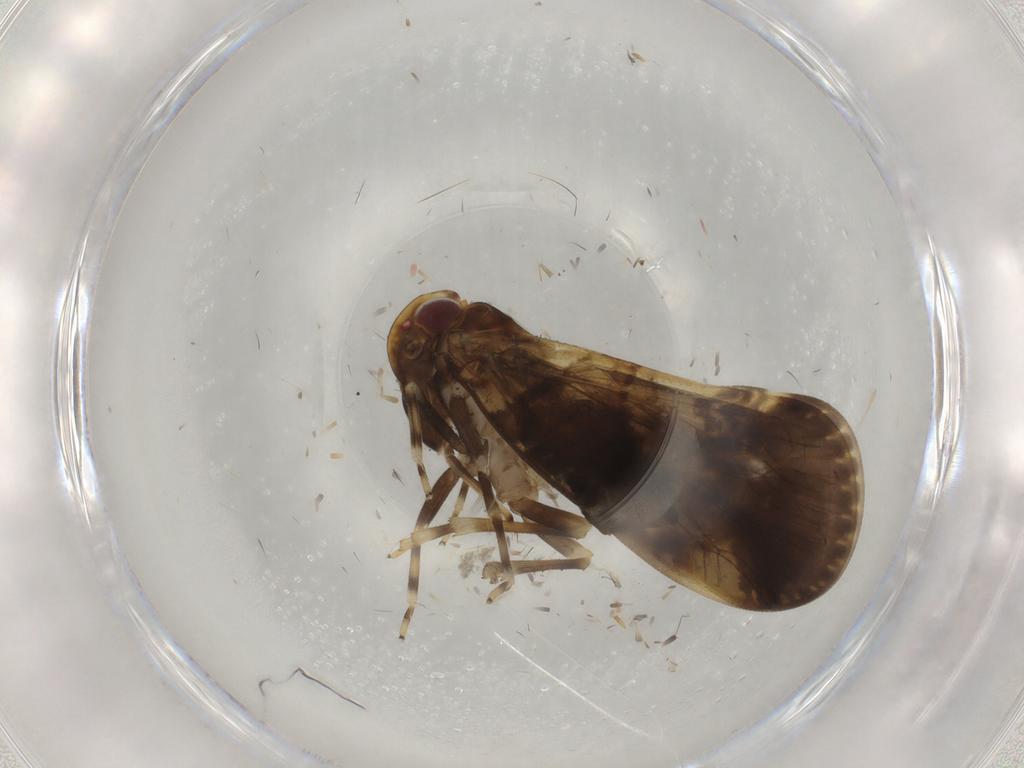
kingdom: Animalia
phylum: Arthropoda
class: Insecta
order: Hemiptera
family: Cixiidae
